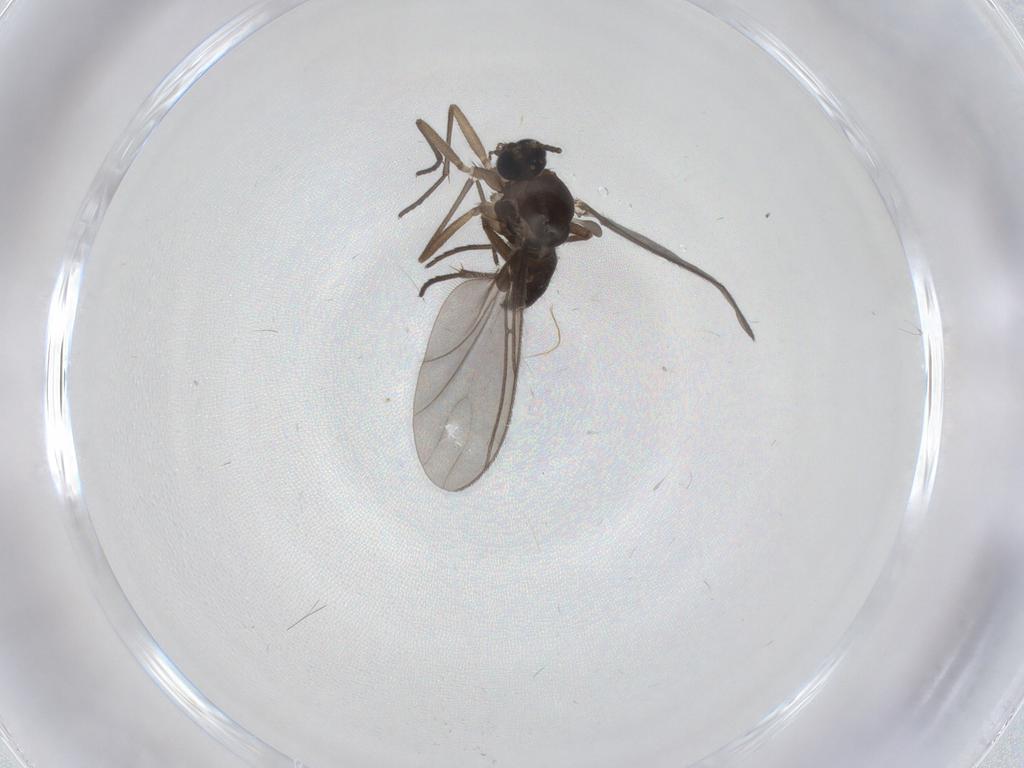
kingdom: Animalia
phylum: Arthropoda
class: Insecta
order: Diptera
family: Sciaridae
